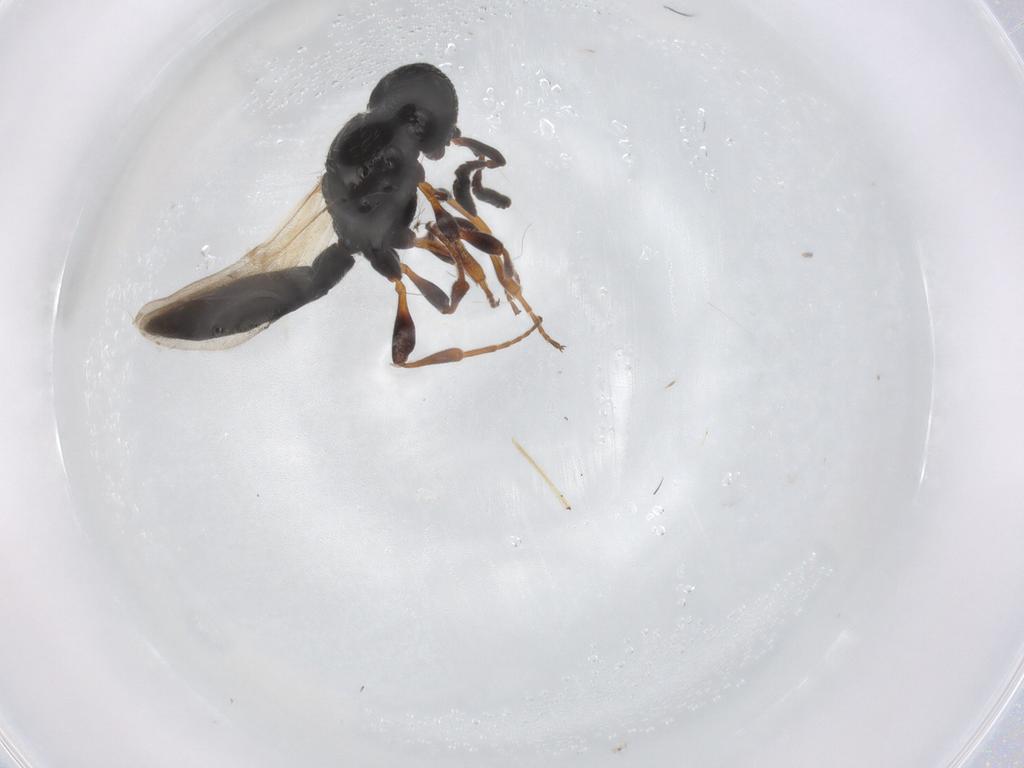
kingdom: Animalia
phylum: Arthropoda
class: Insecta
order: Hymenoptera
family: Scelionidae
